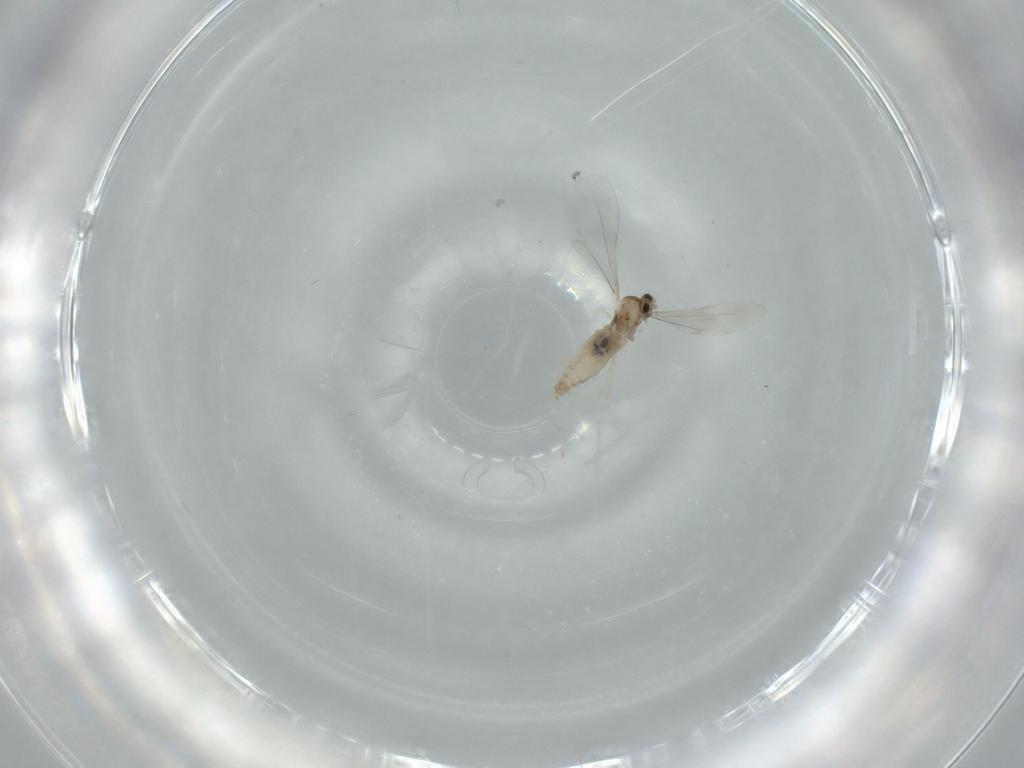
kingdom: Animalia
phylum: Arthropoda
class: Insecta
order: Diptera
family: Cecidomyiidae
